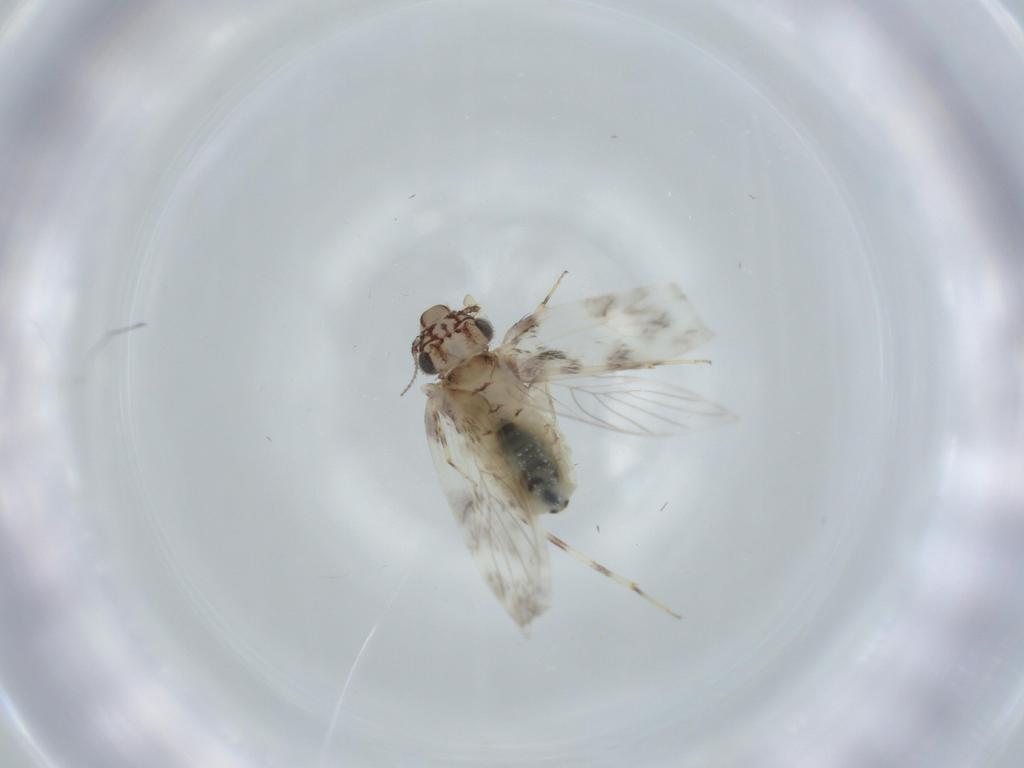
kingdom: Animalia
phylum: Arthropoda
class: Insecta
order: Psocodea
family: Lepidopsocidae
